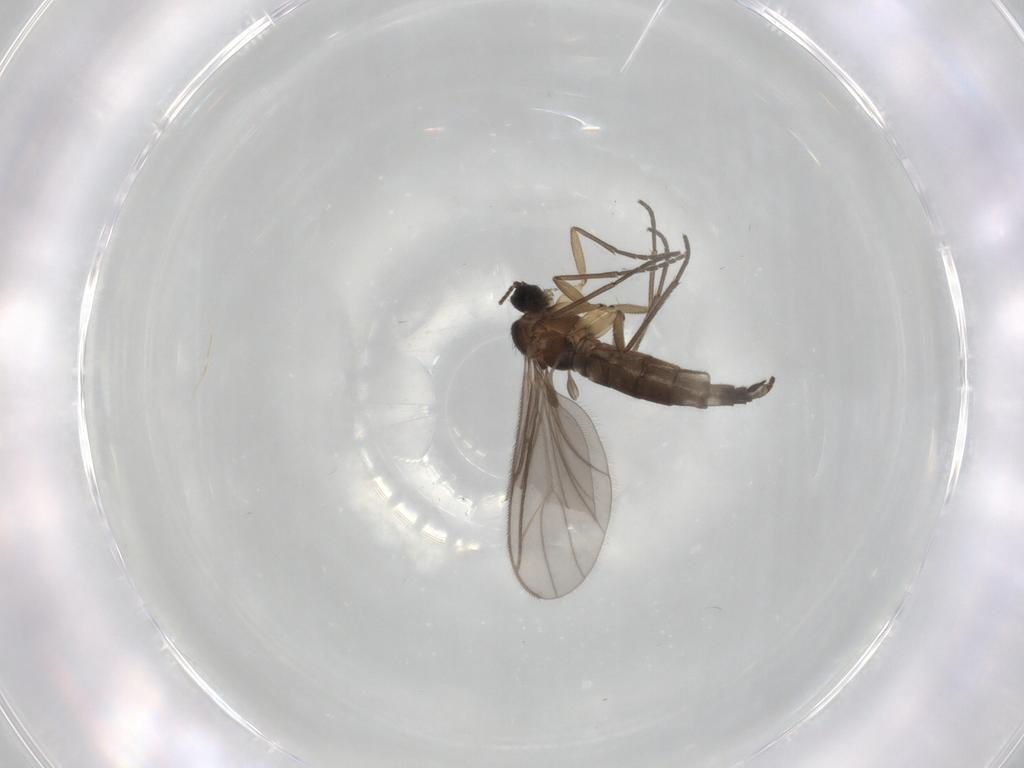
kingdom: Animalia
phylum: Arthropoda
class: Insecta
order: Diptera
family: Sciaridae
